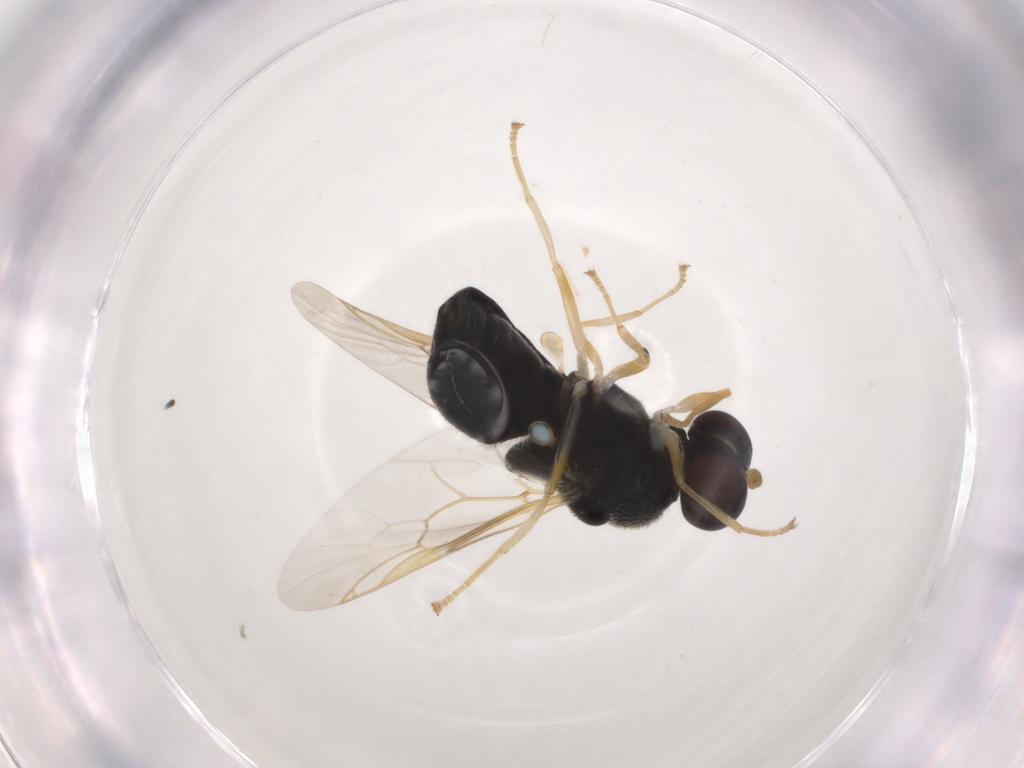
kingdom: Animalia
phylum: Arthropoda
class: Insecta
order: Diptera
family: Stratiomyidae
